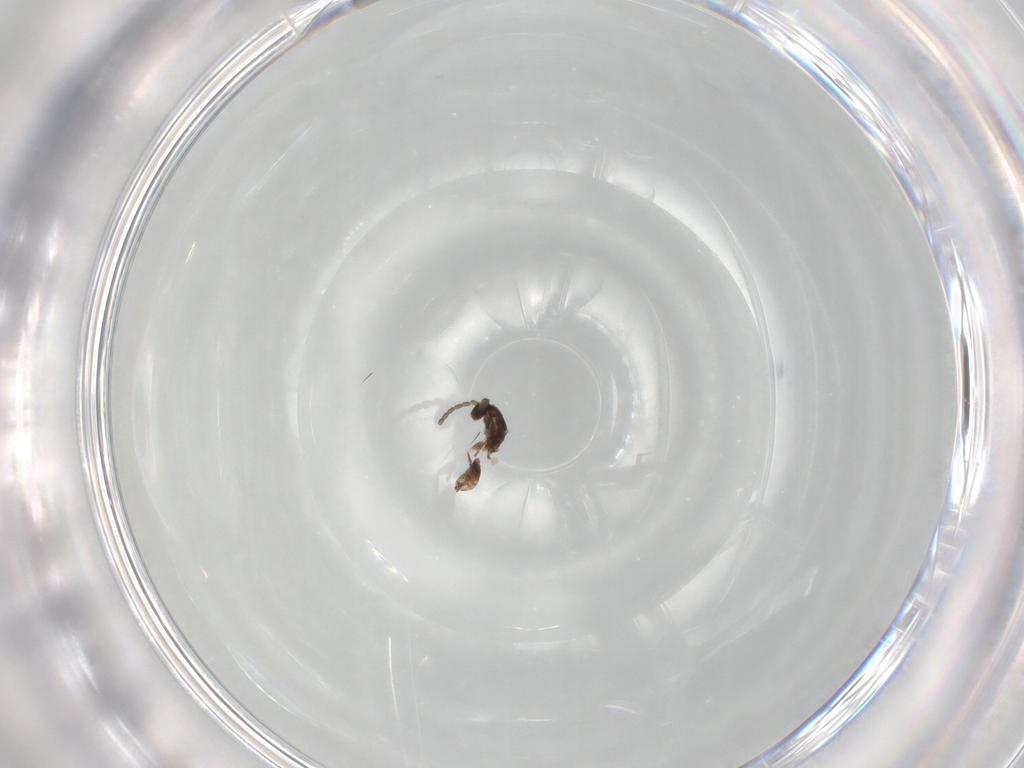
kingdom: Animalia
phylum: Arthropoda
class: Insecta
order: Hymenoptera
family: Mymaridae
